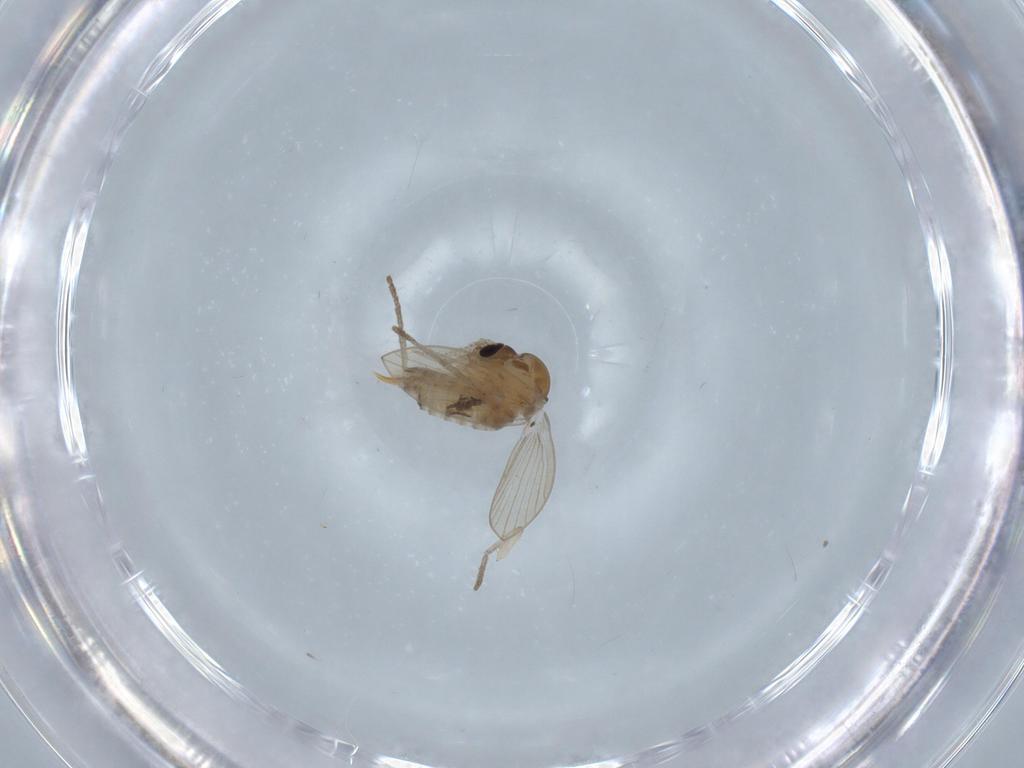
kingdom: Animalia
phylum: Arthropoda
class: Insecta
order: Diptera
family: Psychodidae
